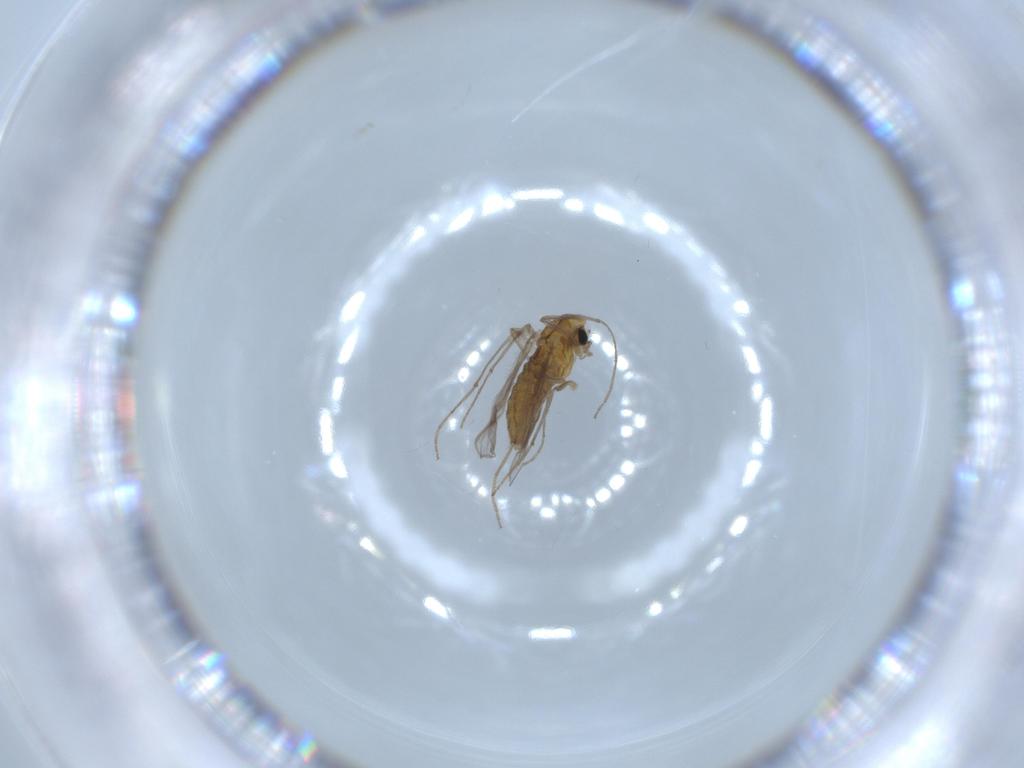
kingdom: Animalia
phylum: Arthropoda
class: Insecta
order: Diptera
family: Chironomidae
